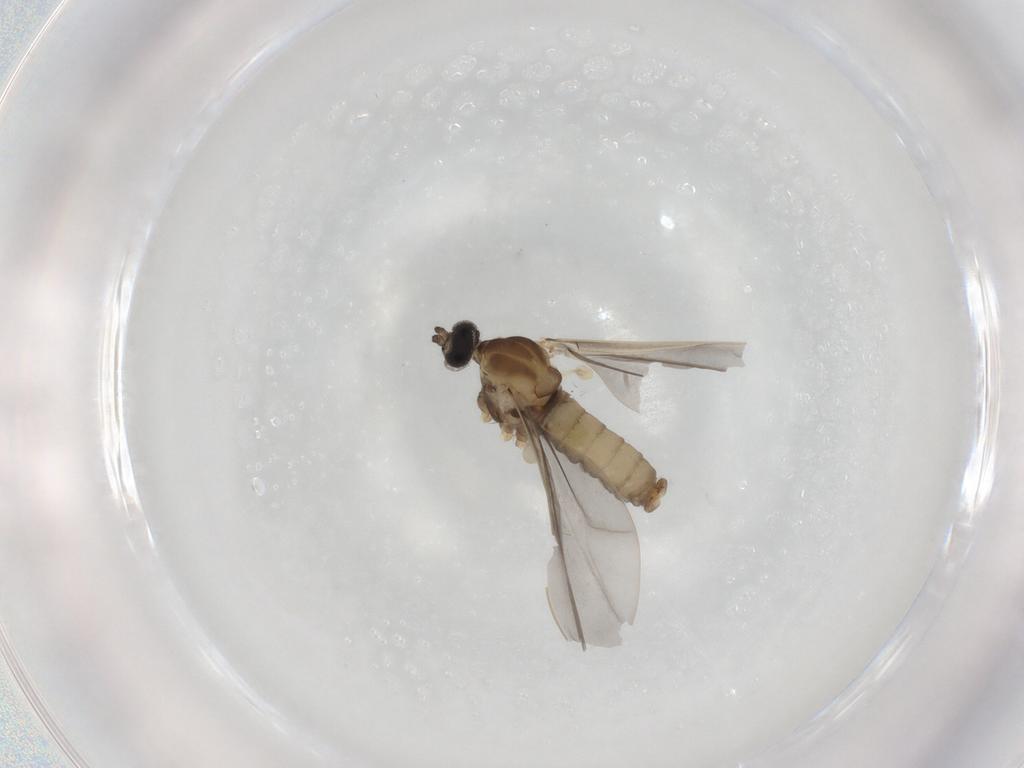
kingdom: Animalia
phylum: Arthropoda
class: Insecta
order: Diptera
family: Cecidomyiidae
